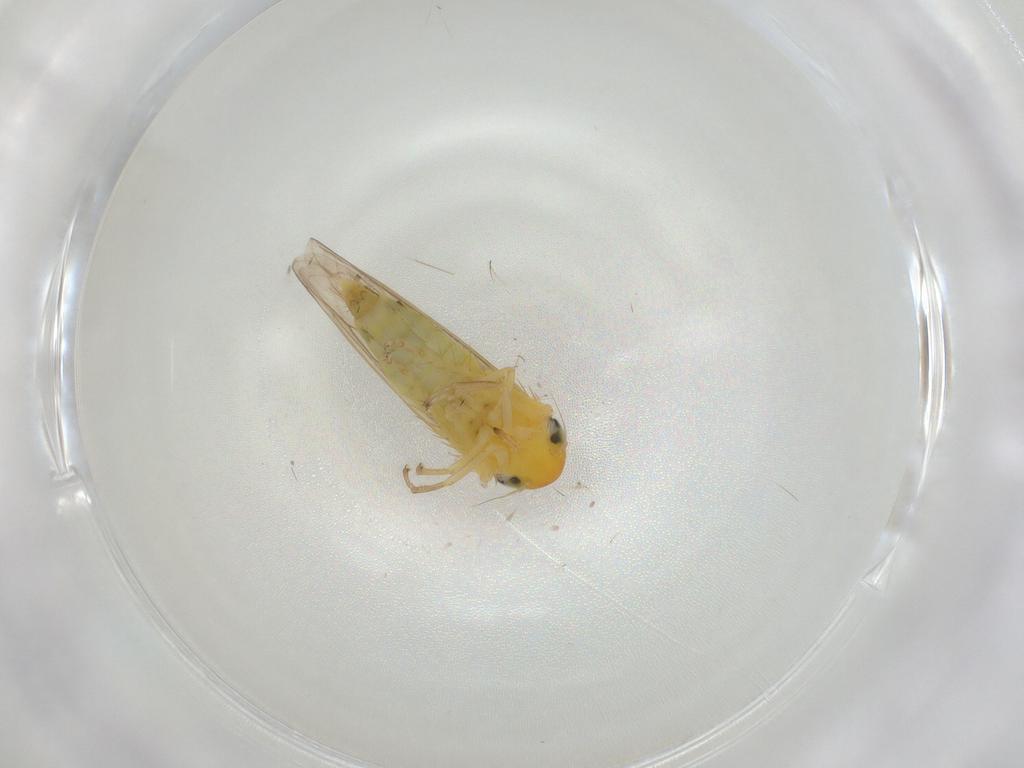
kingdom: Animalia
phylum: Arthropoda
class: Insecta
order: Hemiptera
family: Cicadellidae
